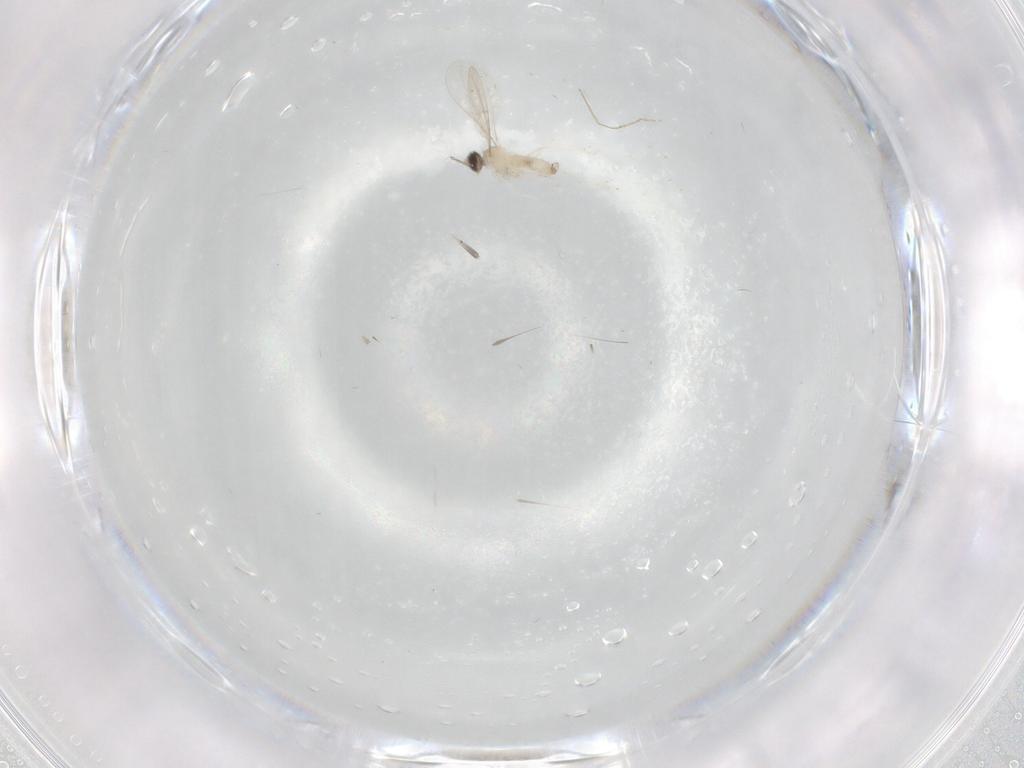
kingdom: Animalia
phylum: Arthropoda
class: Insecta
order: Diptera
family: Cecidomyiidae
